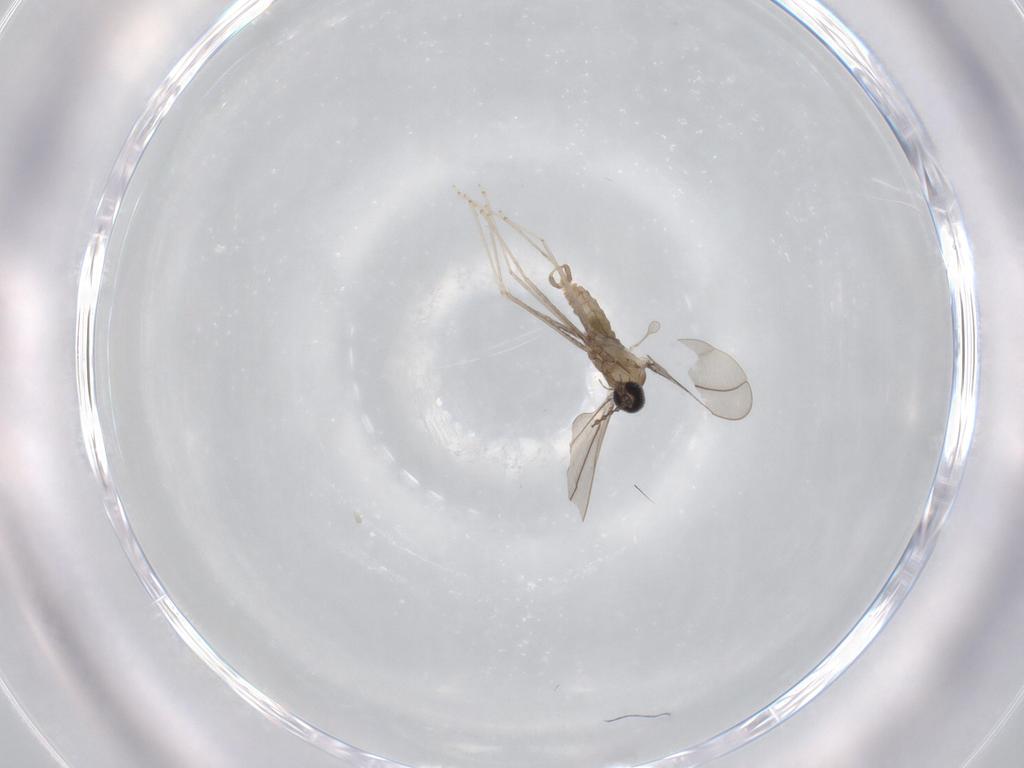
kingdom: Animalia
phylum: Arthropoda
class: Insecta
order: Diptera
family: Cecidomyiidae
